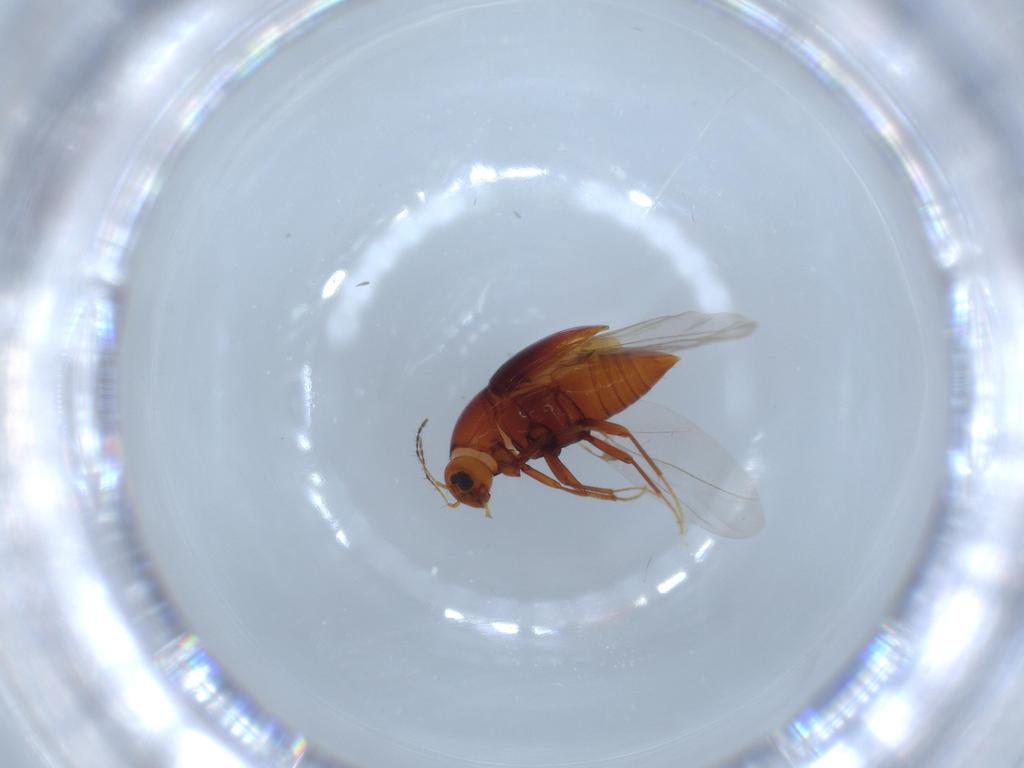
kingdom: Animalia
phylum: Arthropoda
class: Insecta
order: Coleoptera
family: Staphylinidae
